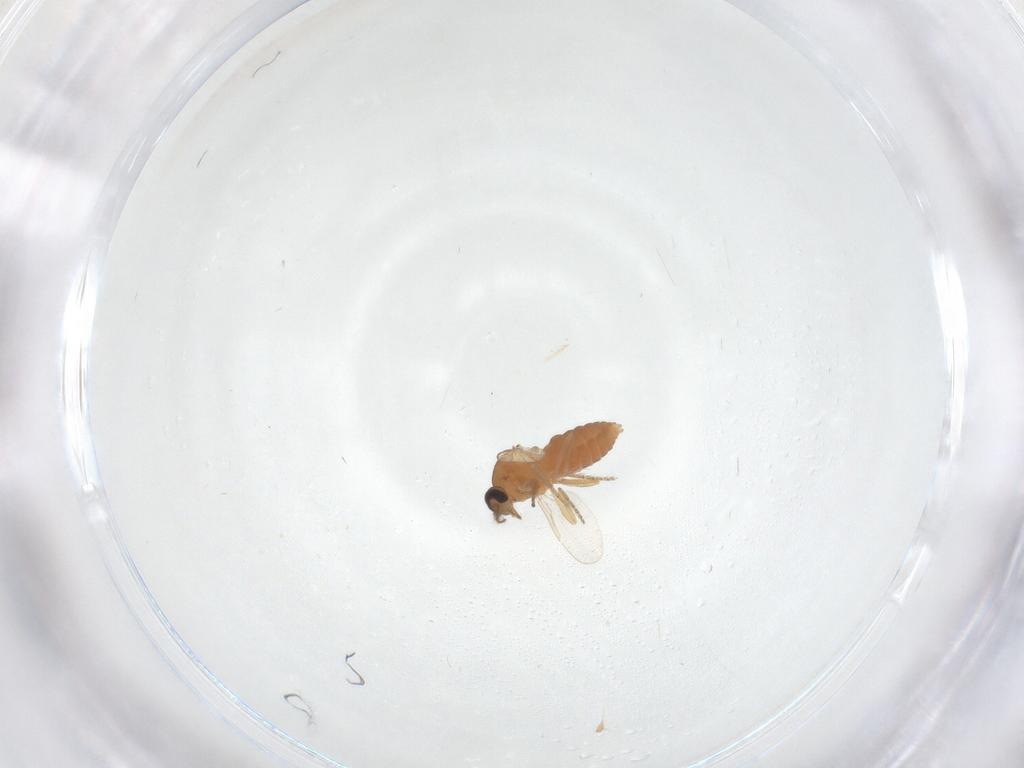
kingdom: Animalia
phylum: Arthropoda
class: Insecta
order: Diptera
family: Ceratopogonidae
